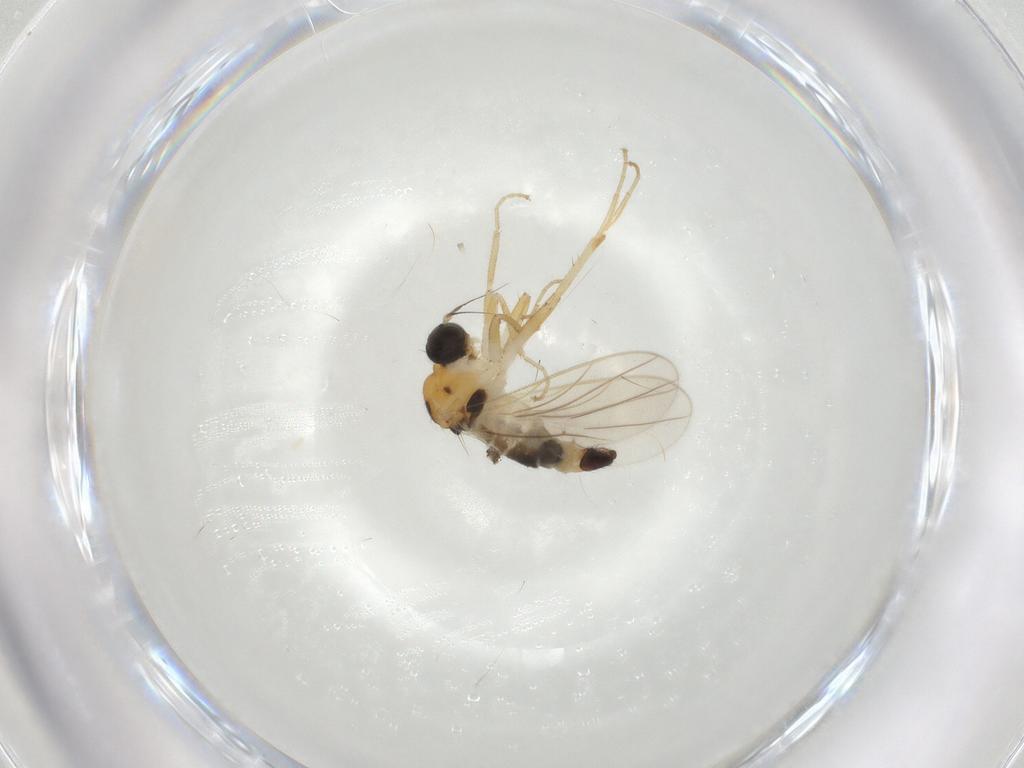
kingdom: Animalia
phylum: Arthropoda
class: Insecta
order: Diptera
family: Hybotidae
